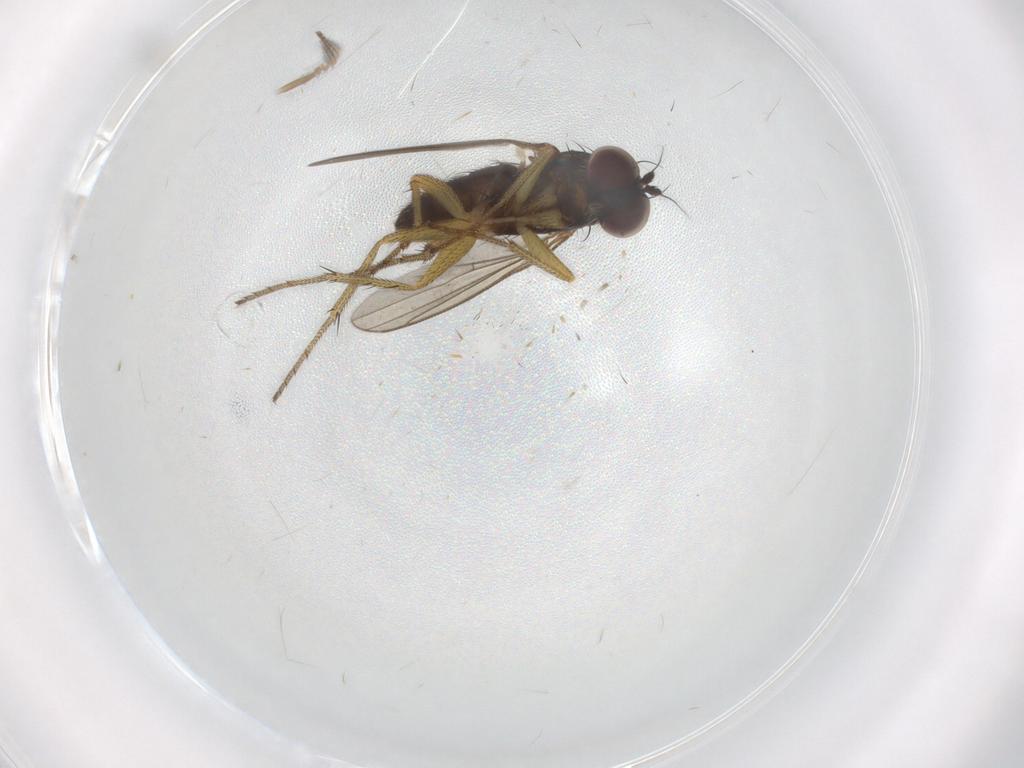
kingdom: Animalia
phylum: Arthropoda
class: Insecta
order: Diptera
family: Chironomidae
